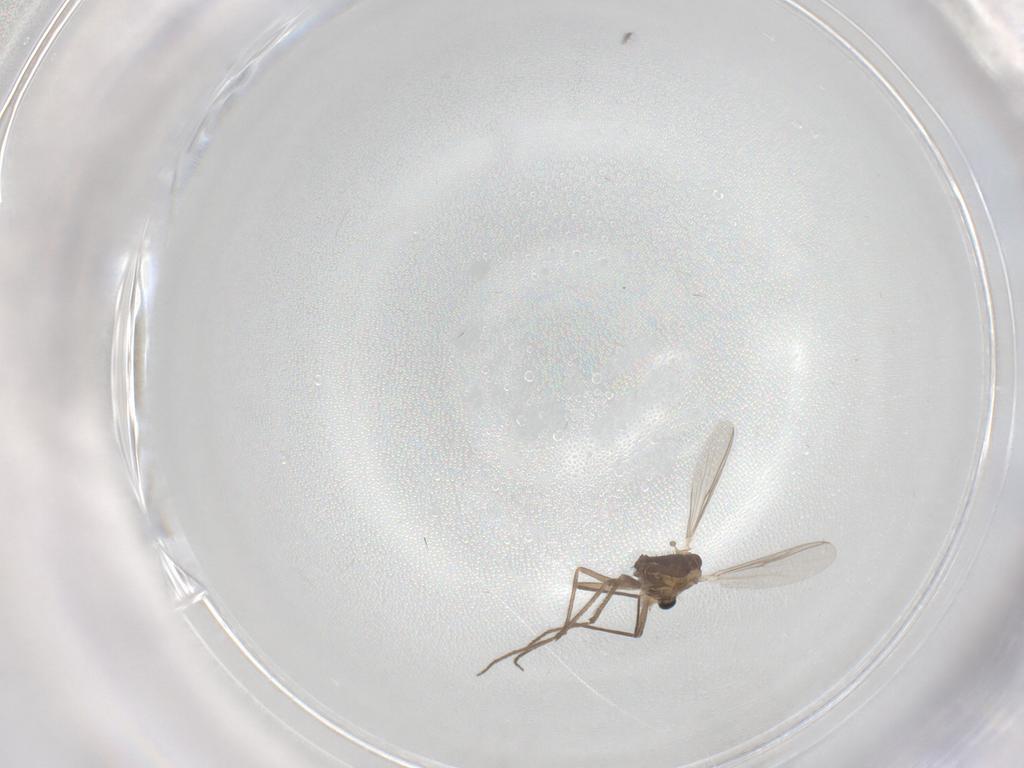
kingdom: Animalia
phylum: Arthropoda
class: Insecta
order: Diptera
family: Chironomidae
